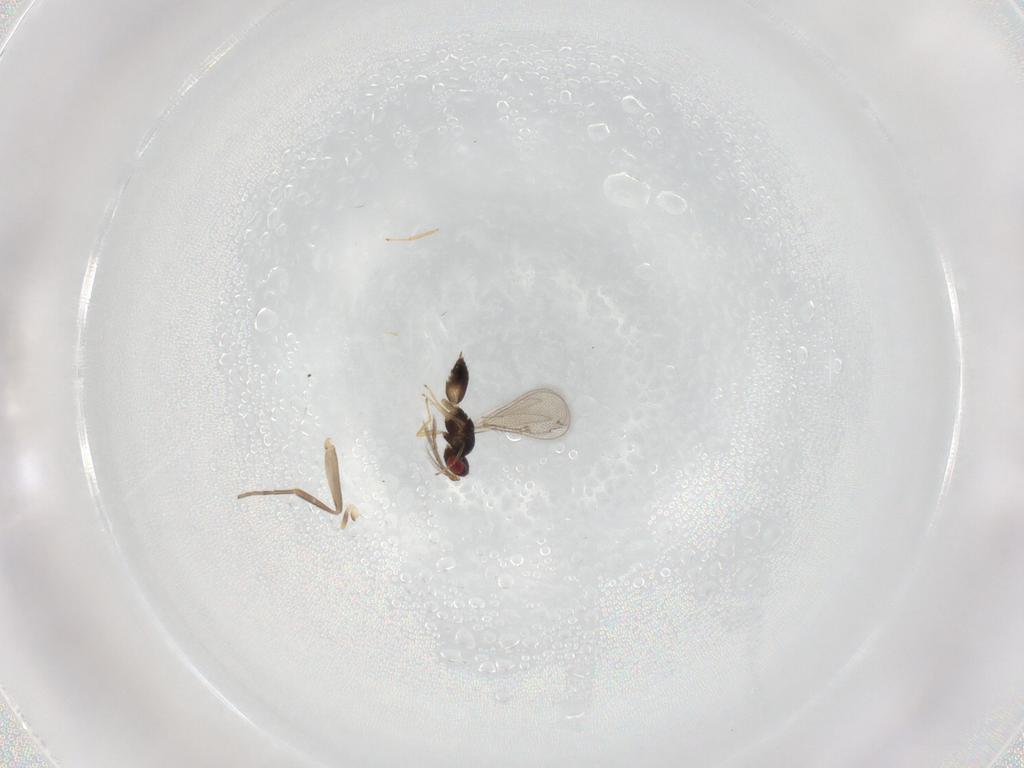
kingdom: Animalia
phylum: Arthropoda
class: Insecta
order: Hymenoptera
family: Eulophidae
